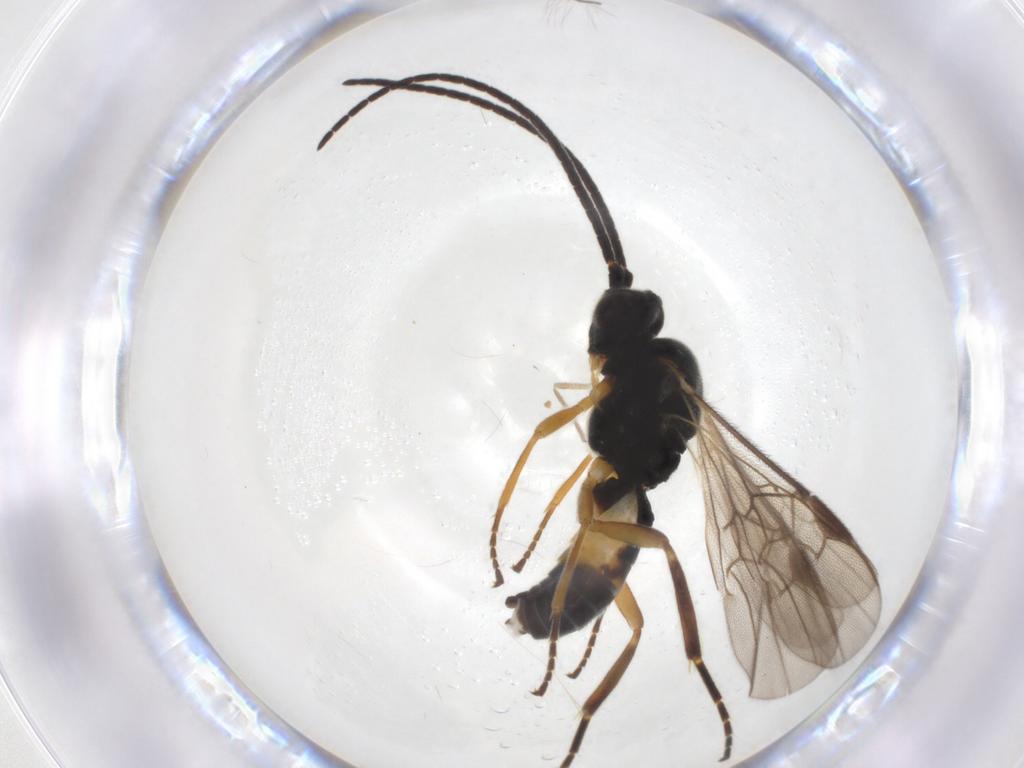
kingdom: Animalia
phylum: Arthropoda
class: Insecta
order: Hymenoptera
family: Braconidae
